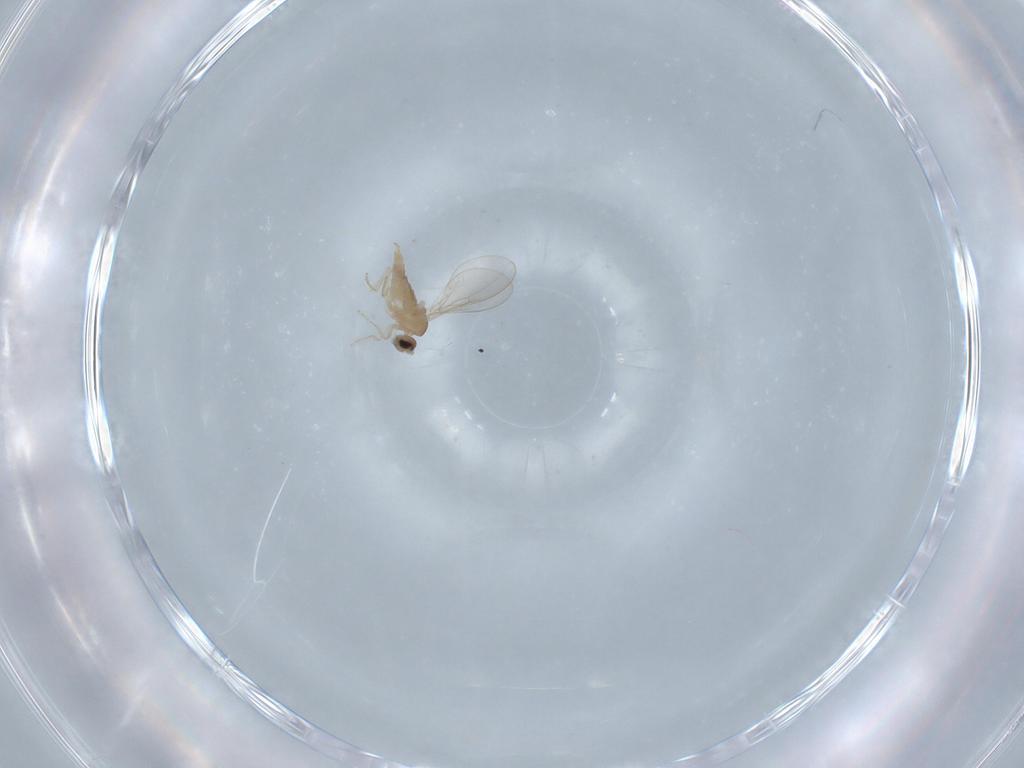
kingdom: Animalia
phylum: Arthropoda
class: Insecta
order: Diptera
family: Cecidomyiidae
